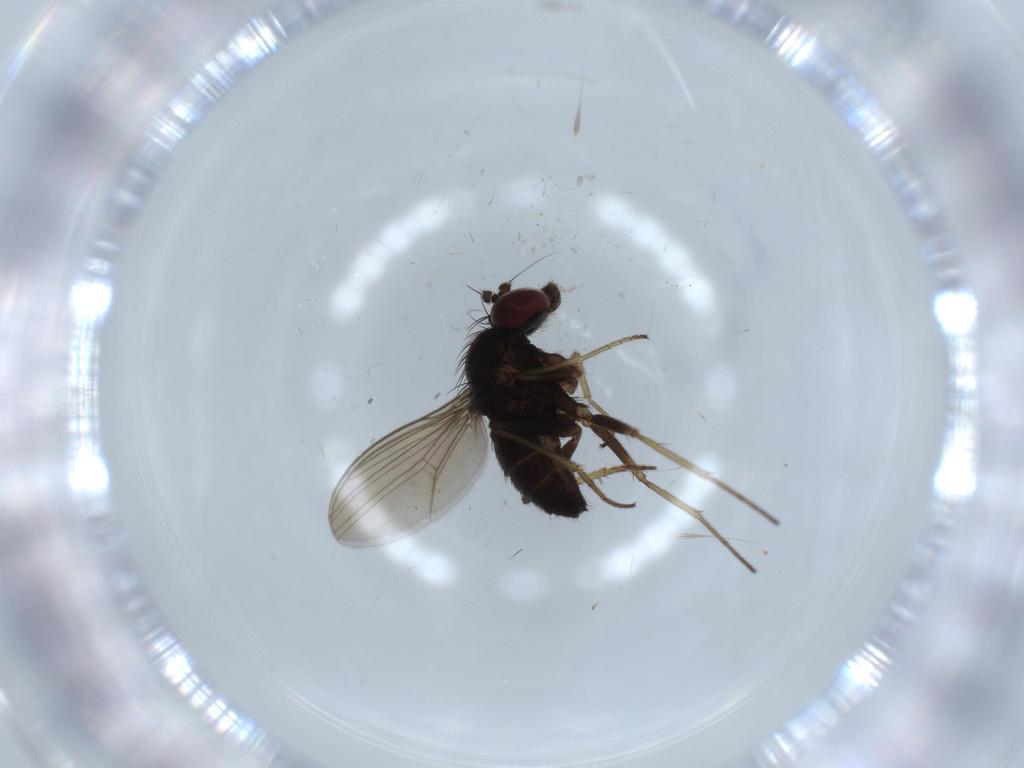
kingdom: Animalia
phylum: Arthropoda
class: Insecta
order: Diptera
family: Dolichopodidae
